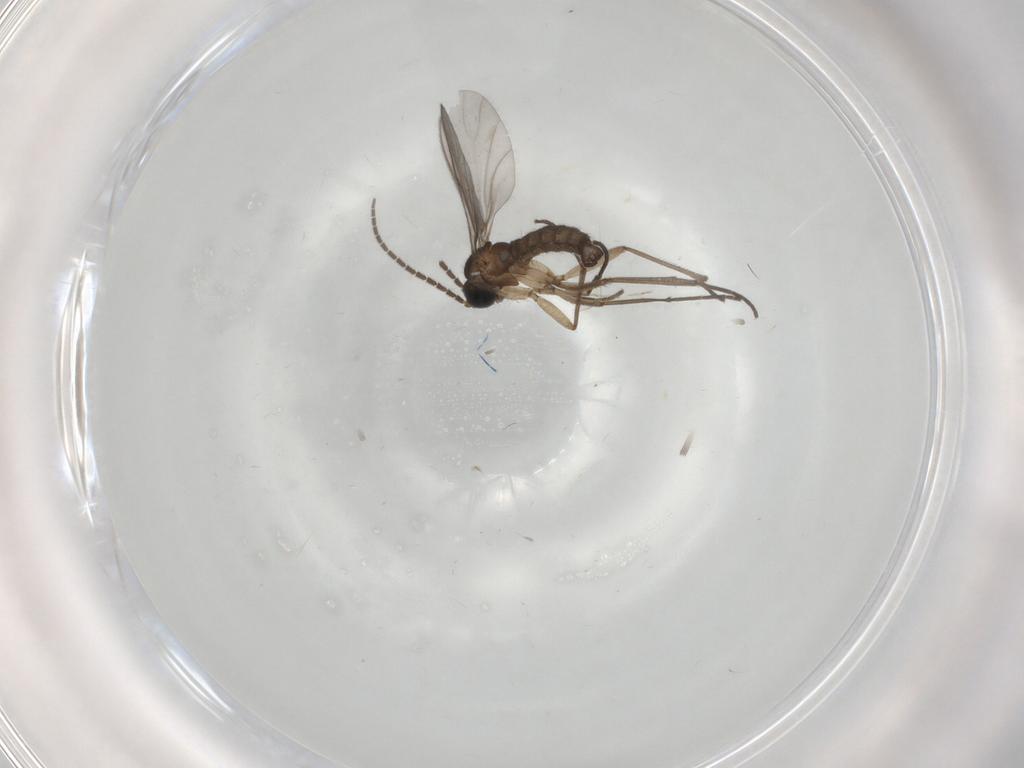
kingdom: Animalia
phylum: Arthropoda
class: Insecta
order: Diptera
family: Sciaridae
